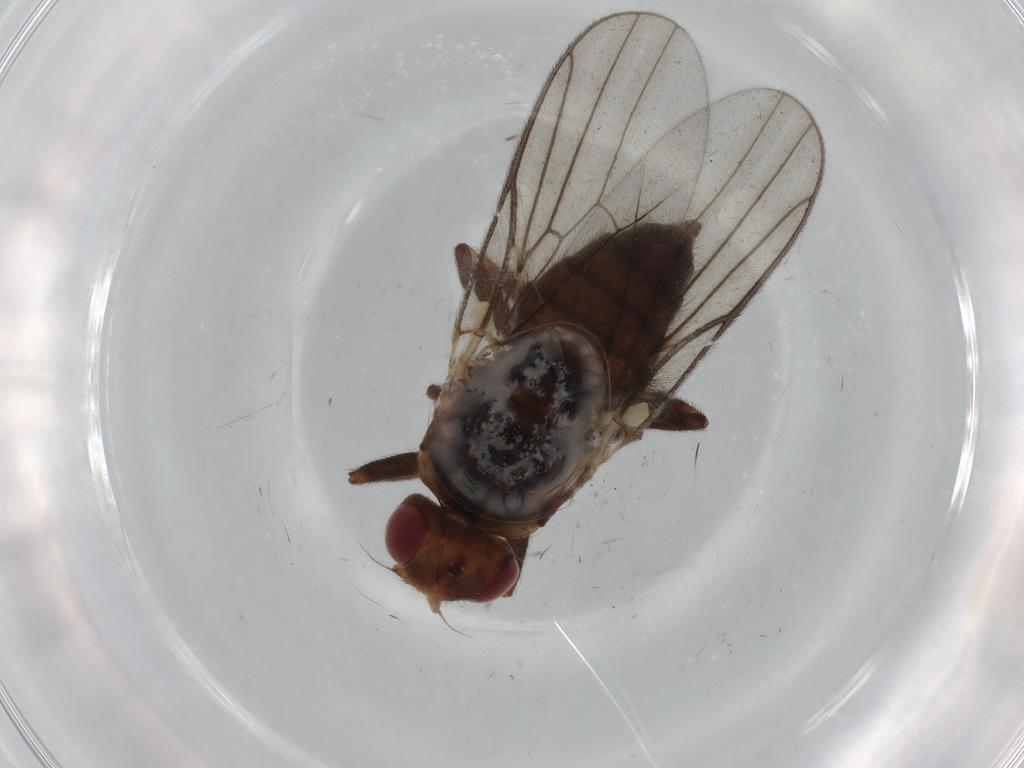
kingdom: Animalia
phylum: Arthropoda
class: Insecta
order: Diptera
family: Chloropidae
